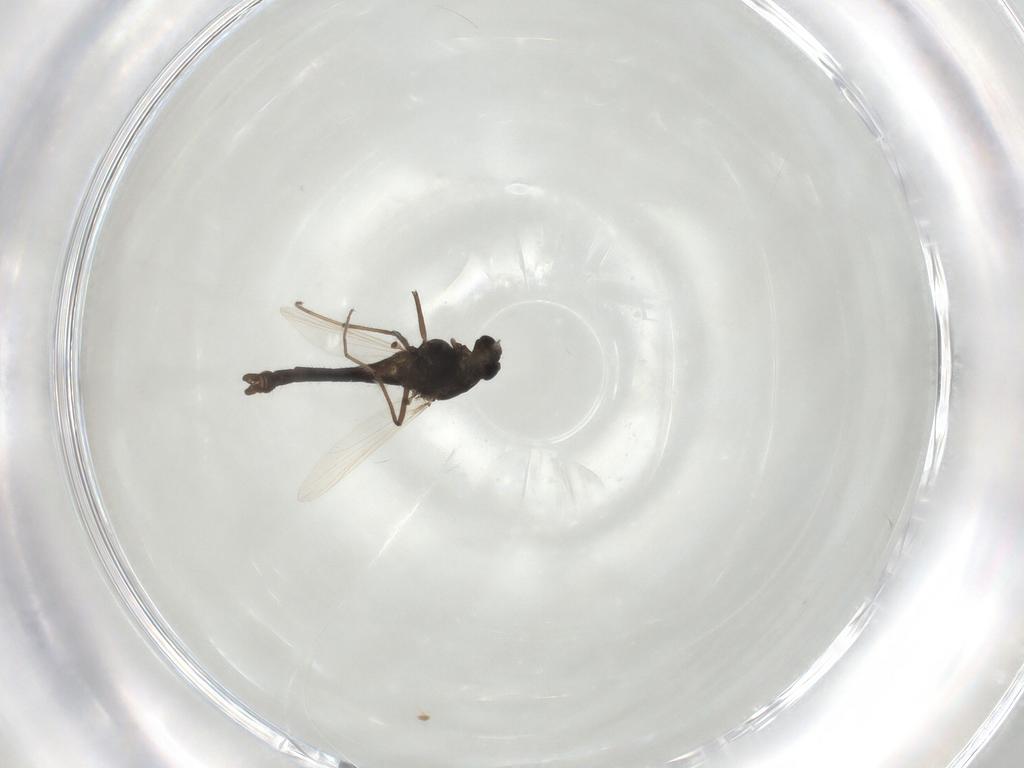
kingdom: Animalia
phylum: Arthropoda
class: Insecta
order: Diptera
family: Chironomidae
